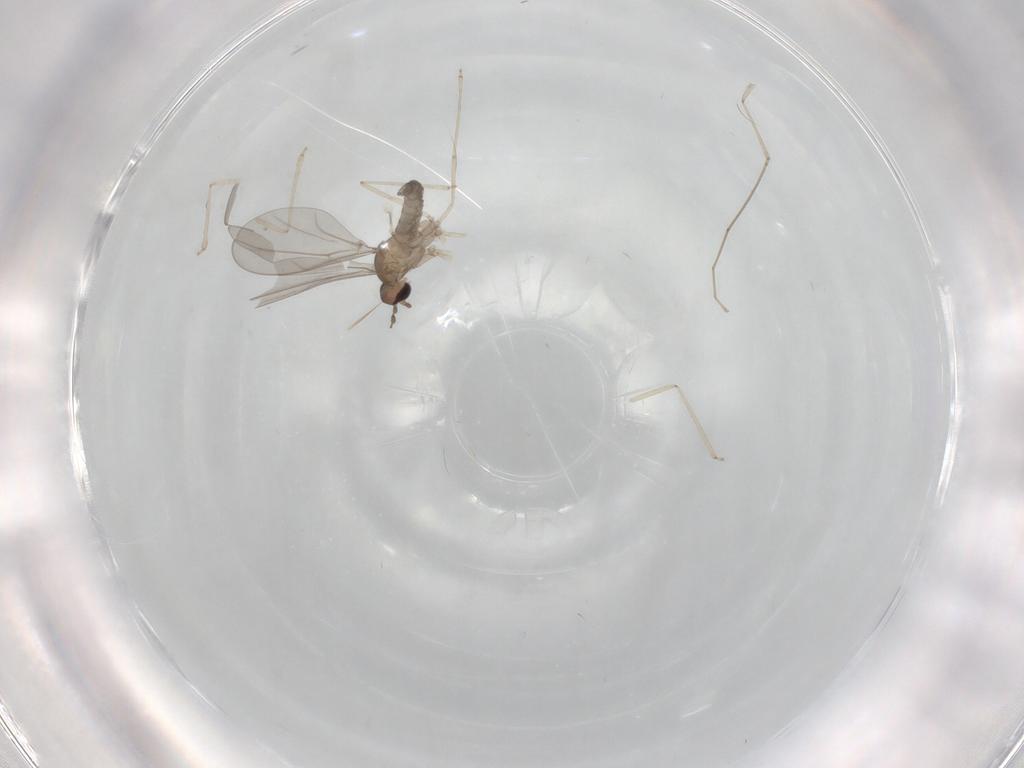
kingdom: Animalia
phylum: Arthropoda
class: Insecta
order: Diptera
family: Cecidomyiidae
